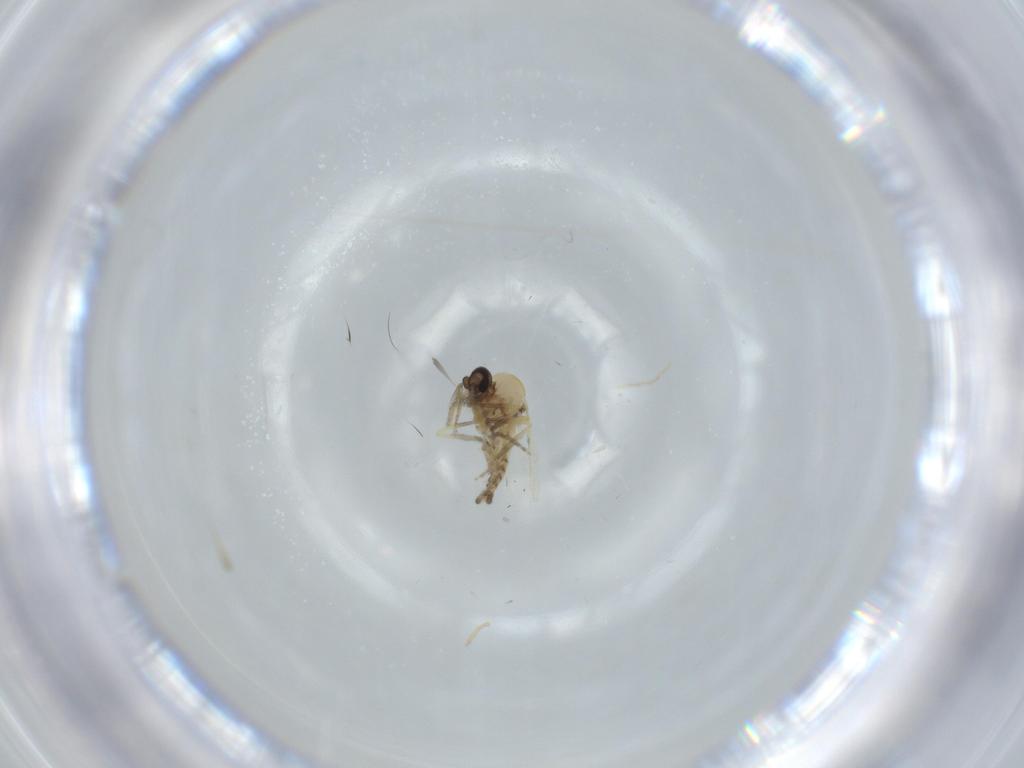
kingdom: Animalia
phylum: Arthropoda
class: Insecta
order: Diptera
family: Ceratopogonidae
